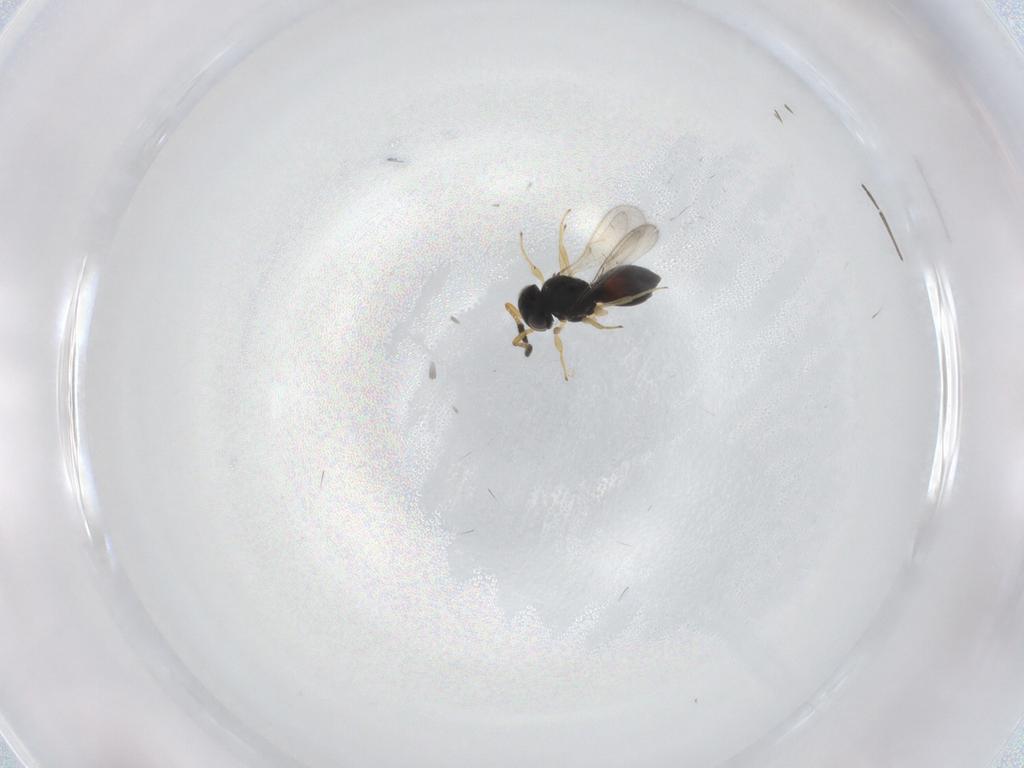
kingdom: Animalia
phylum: Arthropoda
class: Insecta
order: Hymenoptera
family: Scelionidae
